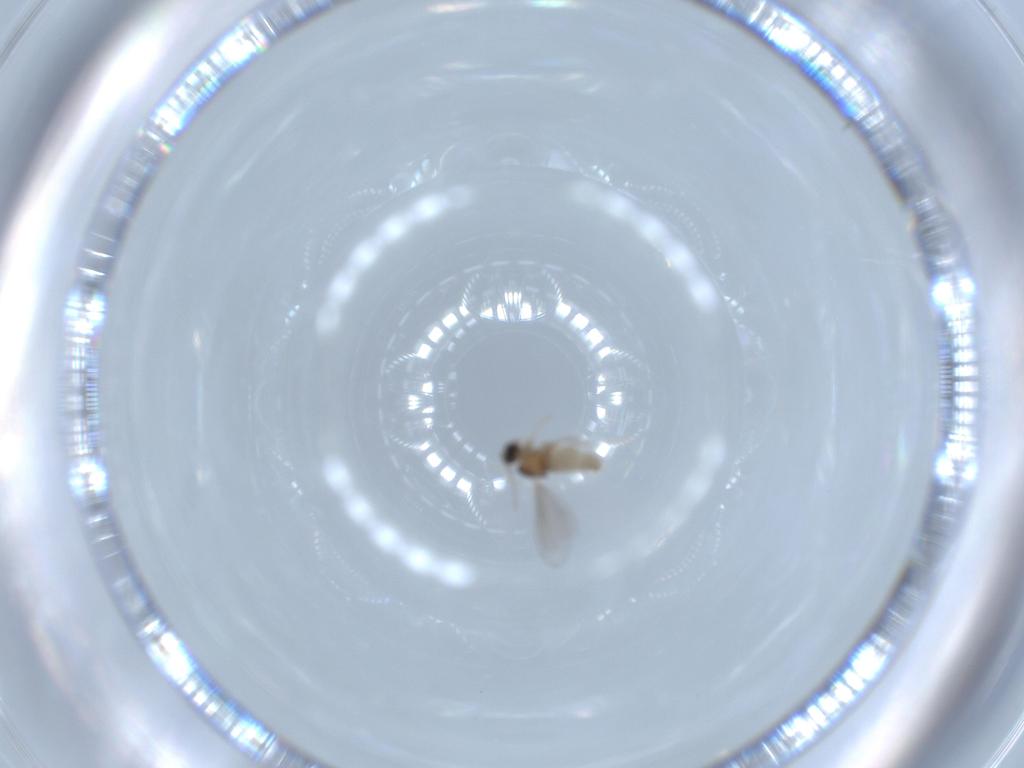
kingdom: Animalia
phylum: Arthropoda
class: Insecta
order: Diptera
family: Cecidomyiidae
